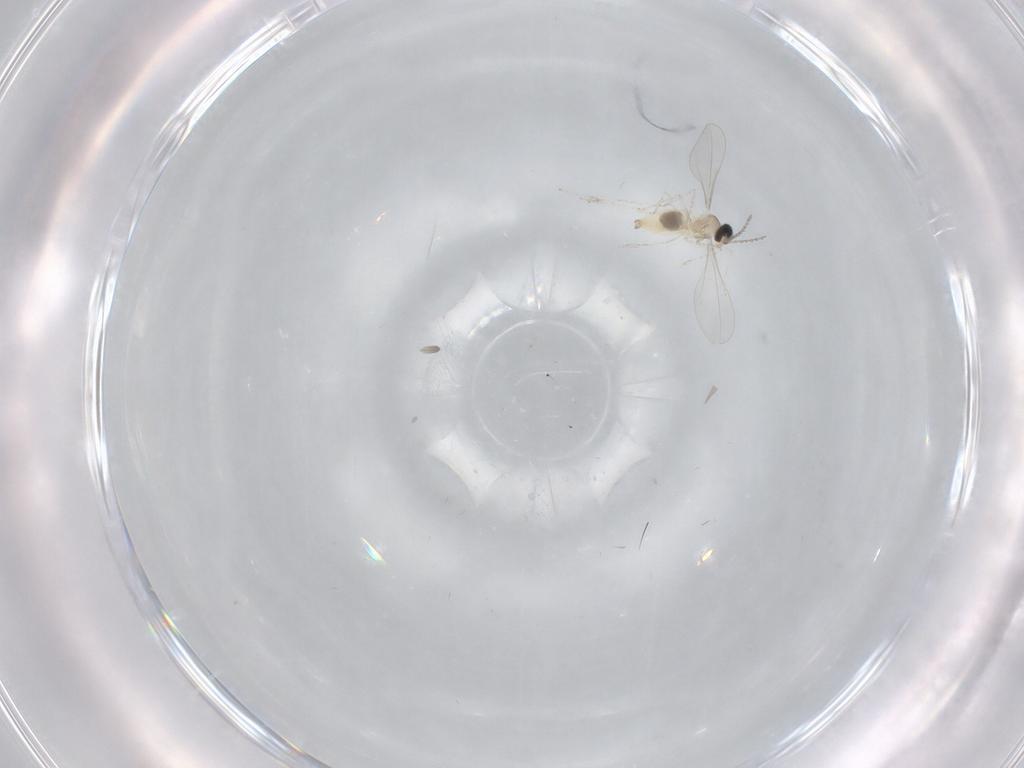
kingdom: Animalia
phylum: Arthropoda
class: Insecta
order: Diptera
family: Cecidomyiidae
